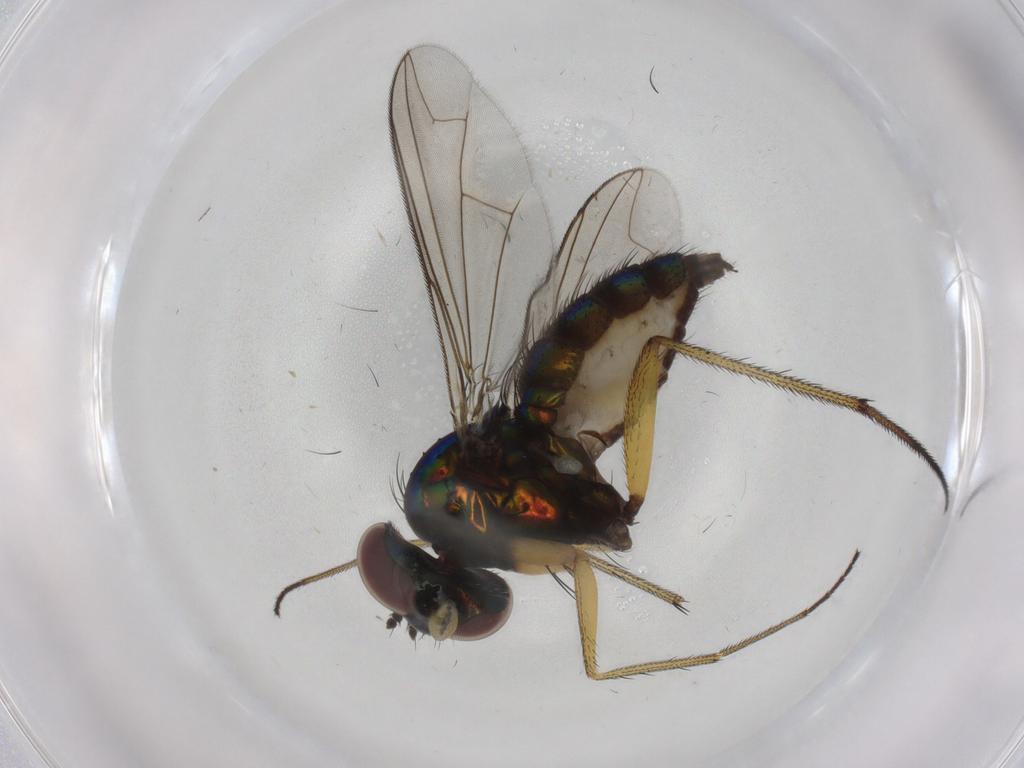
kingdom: Animalia
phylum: Arthropoda
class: Insecta
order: Diptera
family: Dolichopodidae
